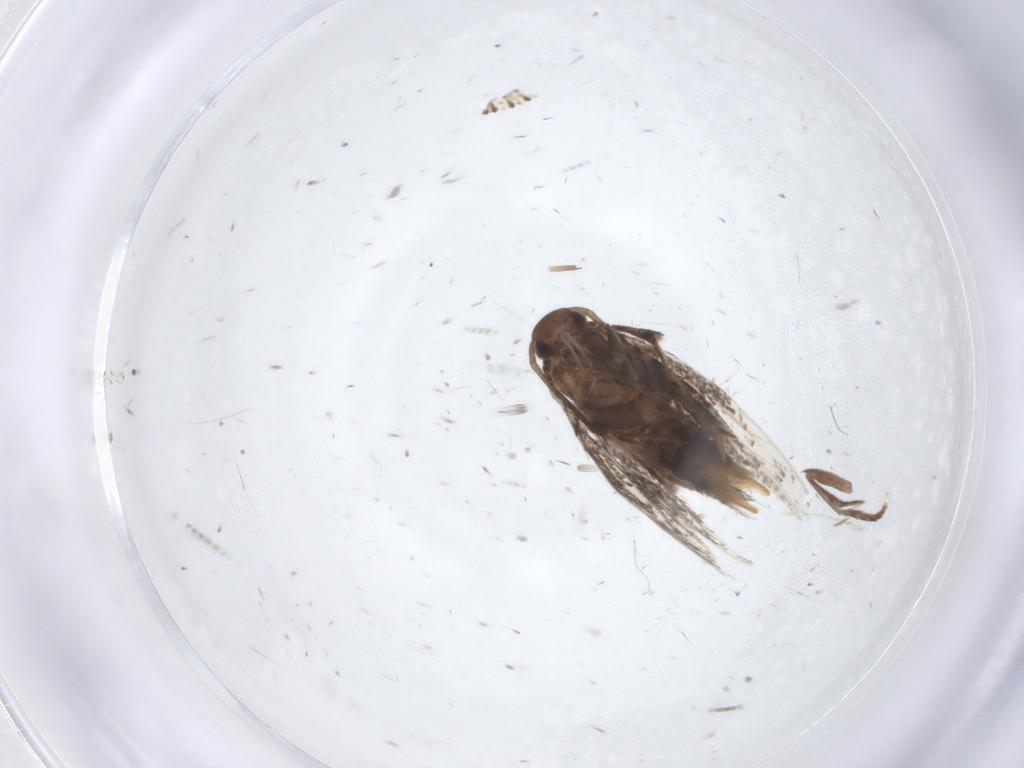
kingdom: Animalia
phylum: Arthropoda
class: Insecta
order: Lepidoptera
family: Elachistidae
